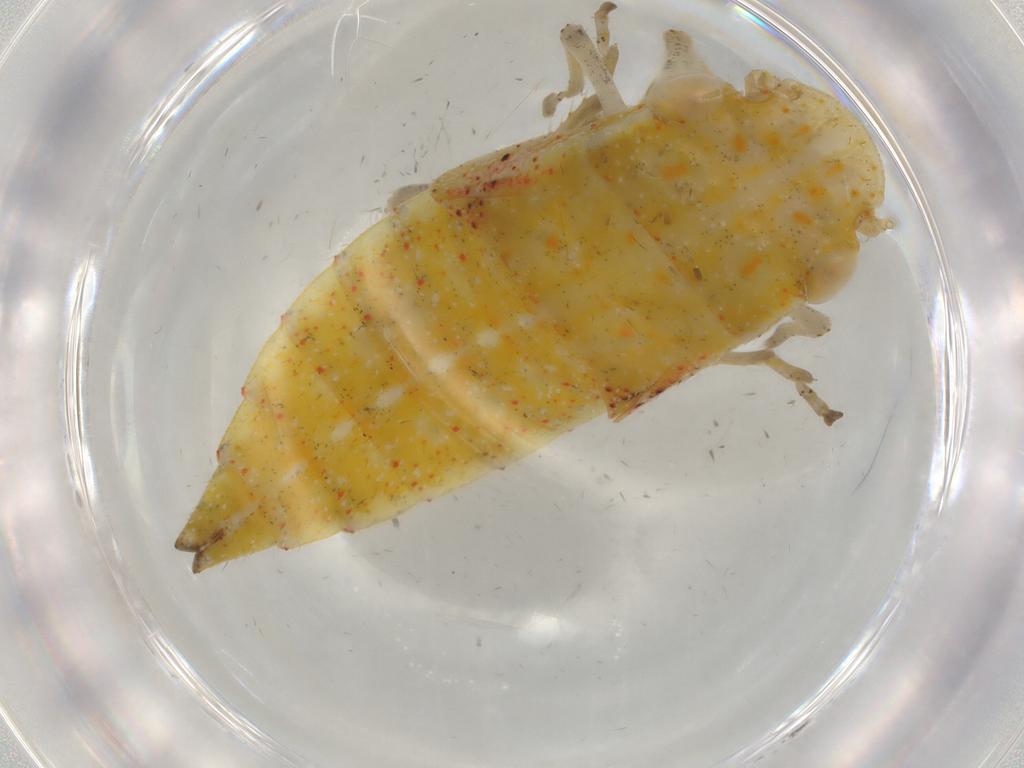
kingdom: Animalia
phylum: Arthropoda
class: Insecta
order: Hemiptera
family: Cicadellidae
